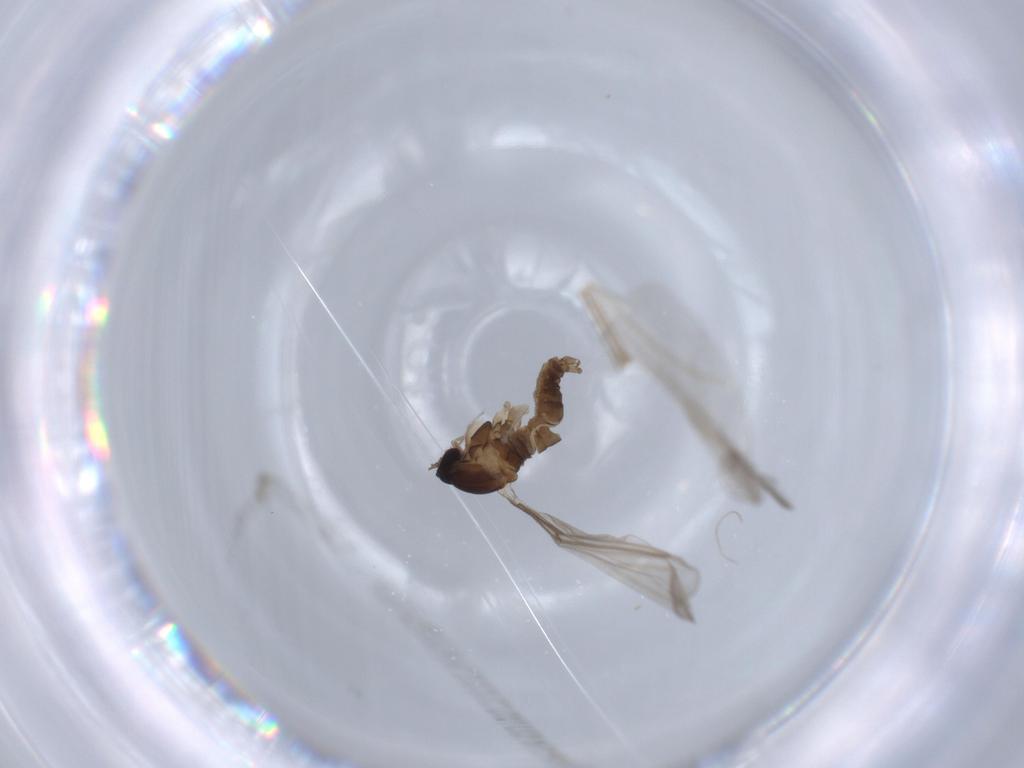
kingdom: Animalia
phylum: Arthropoda
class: Insecta
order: Diptera
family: Cecidomyiidae
